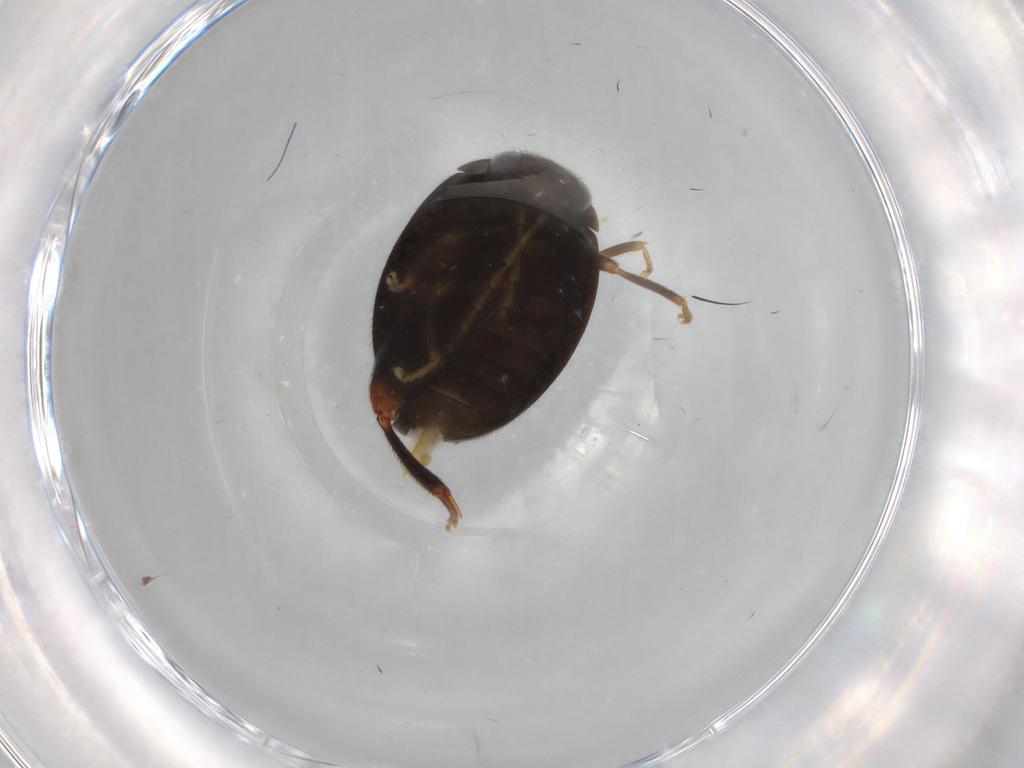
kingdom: Animalia
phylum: Arthropoda
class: Insecta
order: Coleoptera
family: Scirtidae
